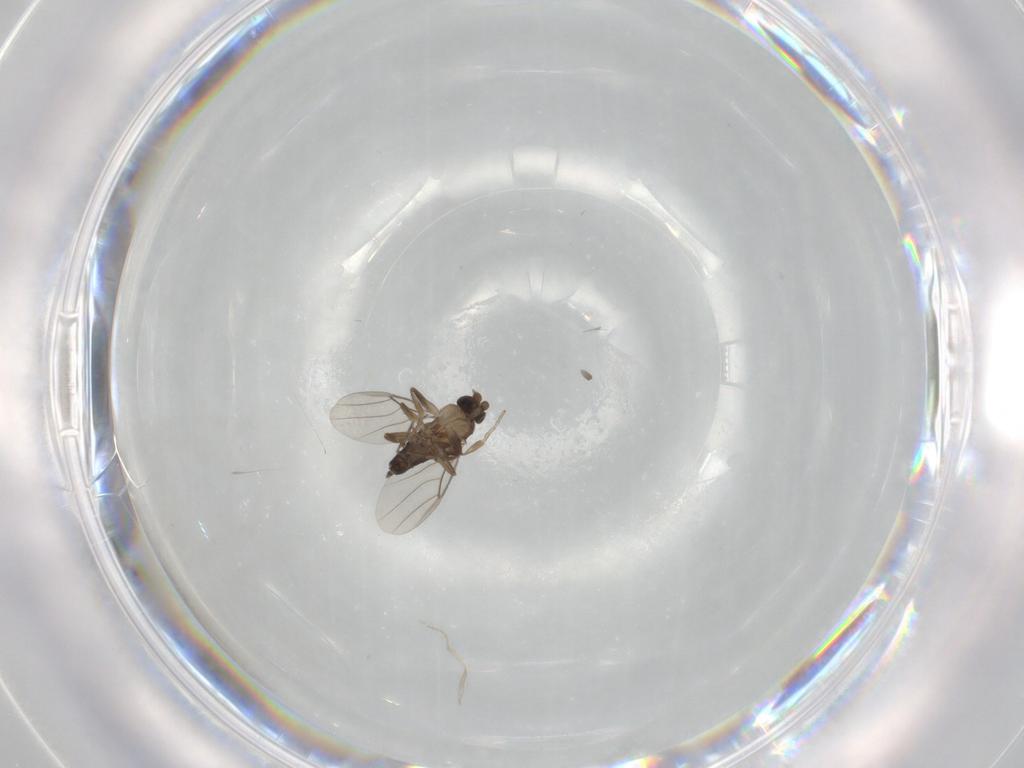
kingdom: Animalia
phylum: Arthropoda
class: Insecta
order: Diptera
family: Phoridae
